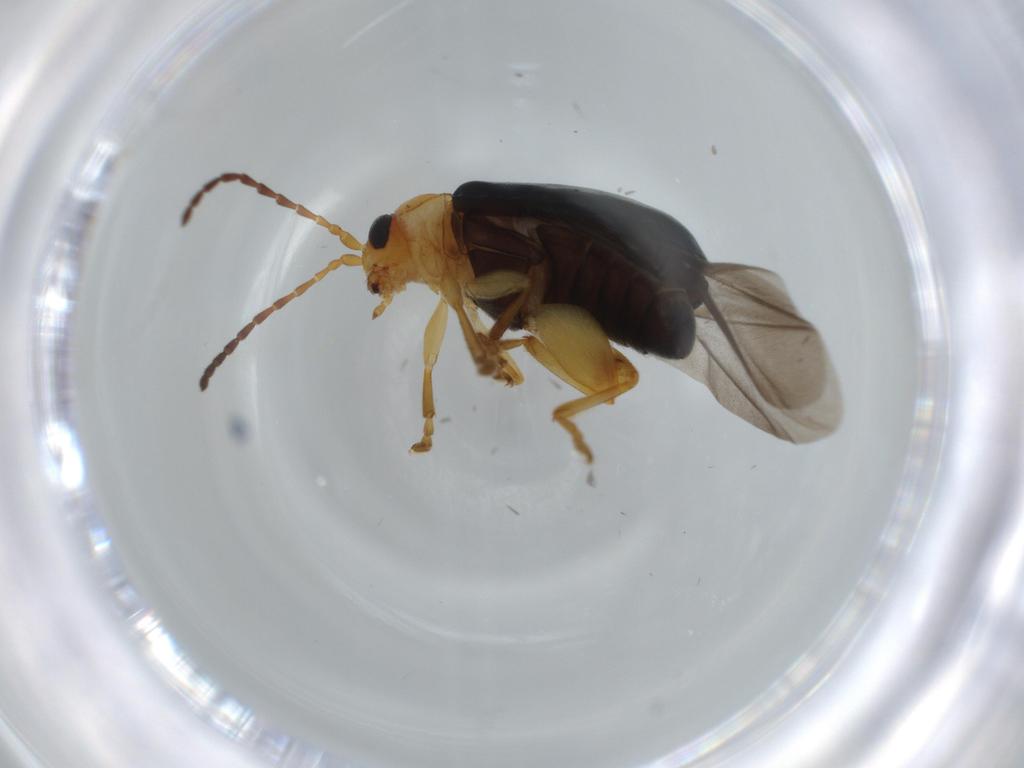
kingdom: Animalia
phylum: Arthropoda
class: Insecta
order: Coleoptera
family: Chrysomelidae
